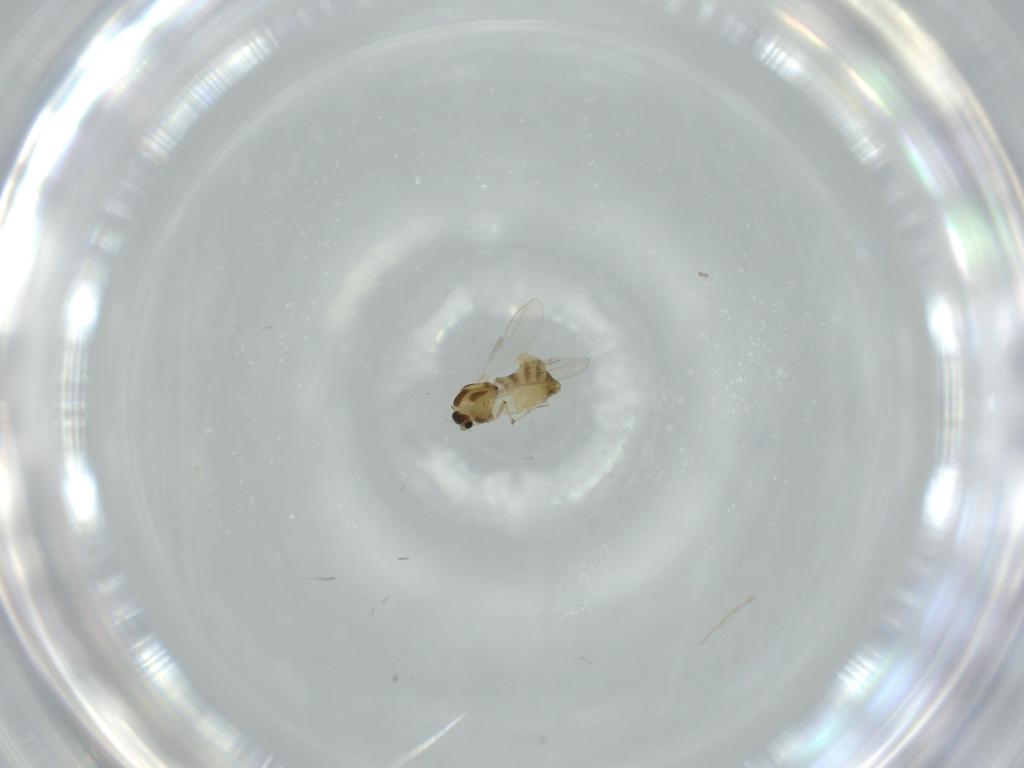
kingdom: Animalia
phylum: Arthropoda
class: Insecta
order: Diptera
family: Chironomidae
